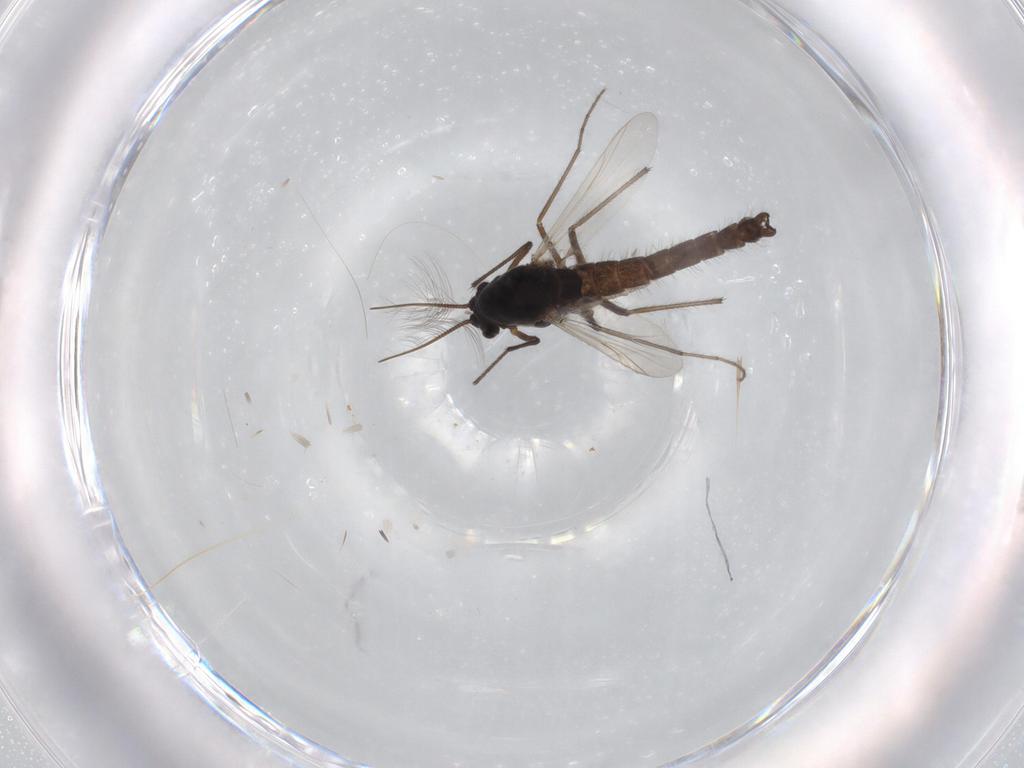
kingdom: Animalia
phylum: Arthropoda
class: Insecta
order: Diptera
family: Chironomidae
